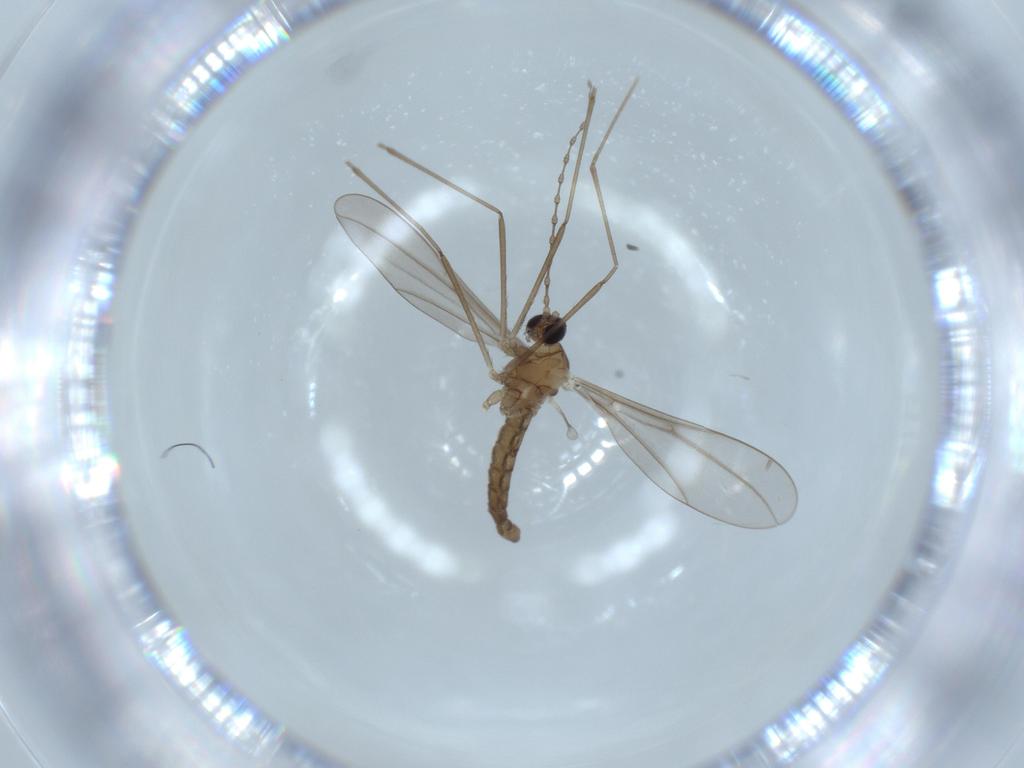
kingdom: Animalia
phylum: Arthropoda
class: Insecta
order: Diptera
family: Cecidomyiidae
